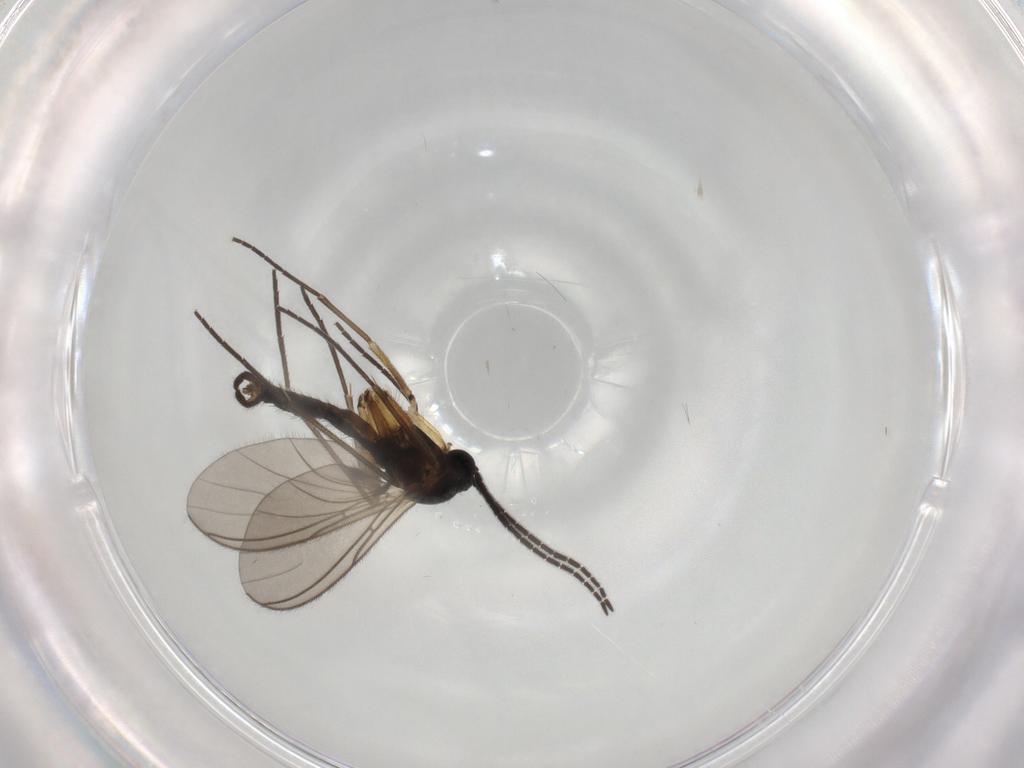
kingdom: Animalia
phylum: Arthropoda
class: Insecta
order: Diptera
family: Sciaridae
